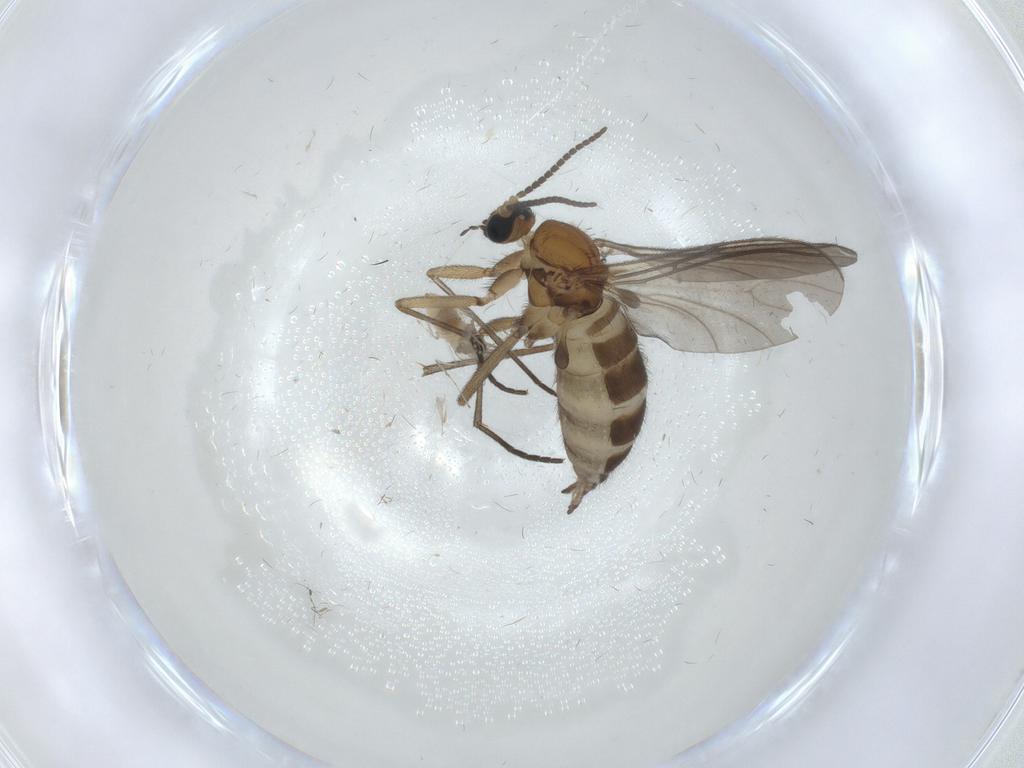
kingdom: Animalia
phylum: Arthropoda
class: Insecta
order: Diptera
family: Sciaridae
